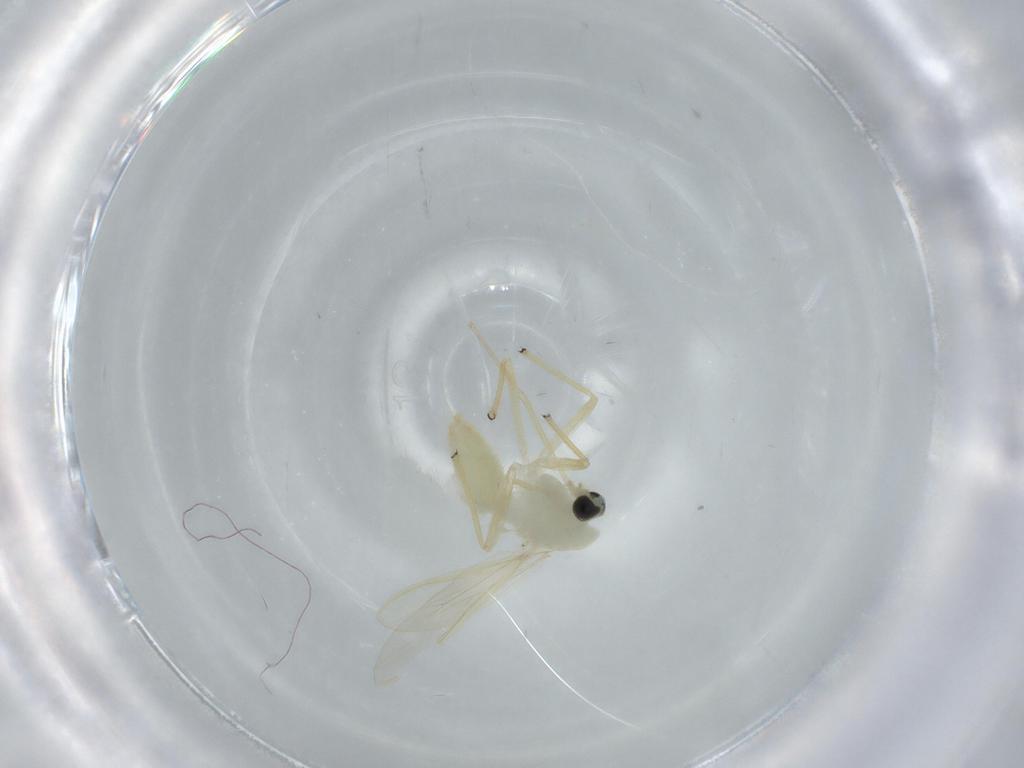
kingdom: Animalia
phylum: Arthropoda
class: Insecta
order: Diptera
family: Chironomidae
